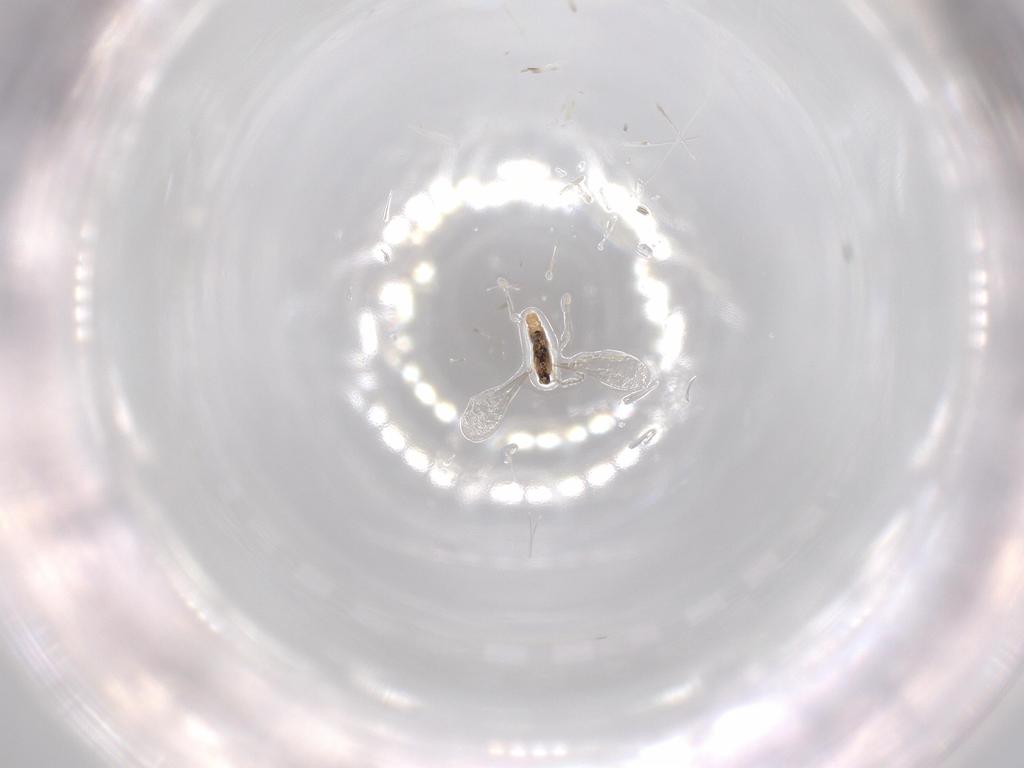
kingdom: Animalia
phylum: Arthropoda
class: Insecta
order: Diptera
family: Cecidomyiidae
